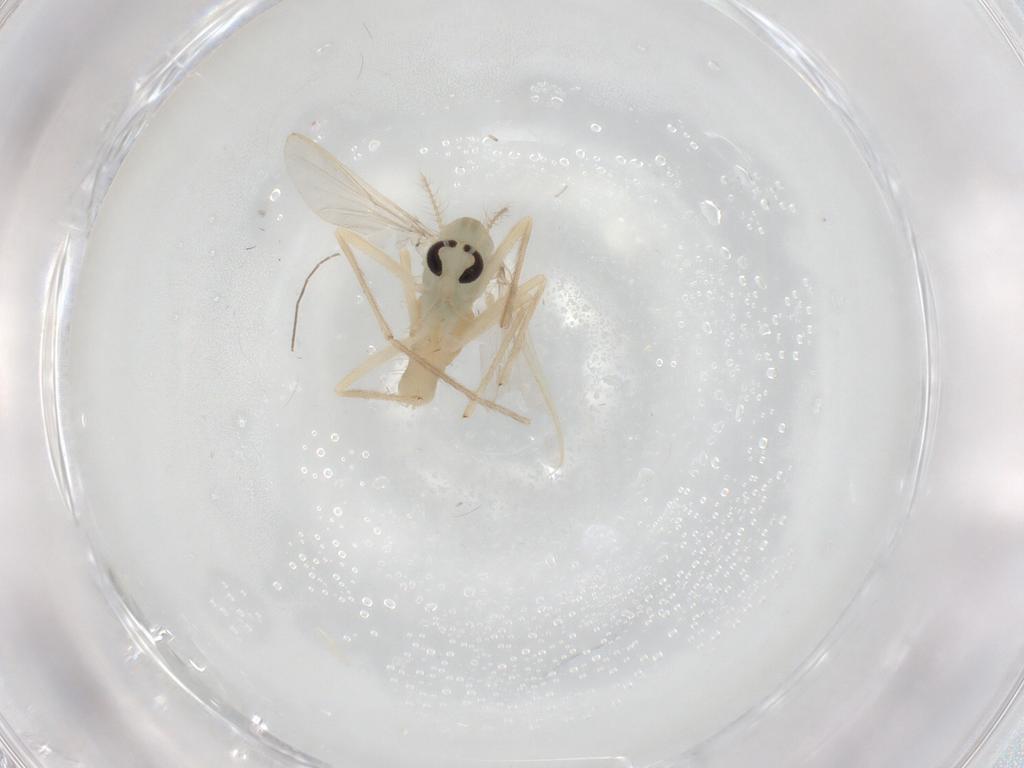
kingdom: Animalia
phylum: Arthropoda
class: Insecta
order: Diptera
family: Chironomidae
